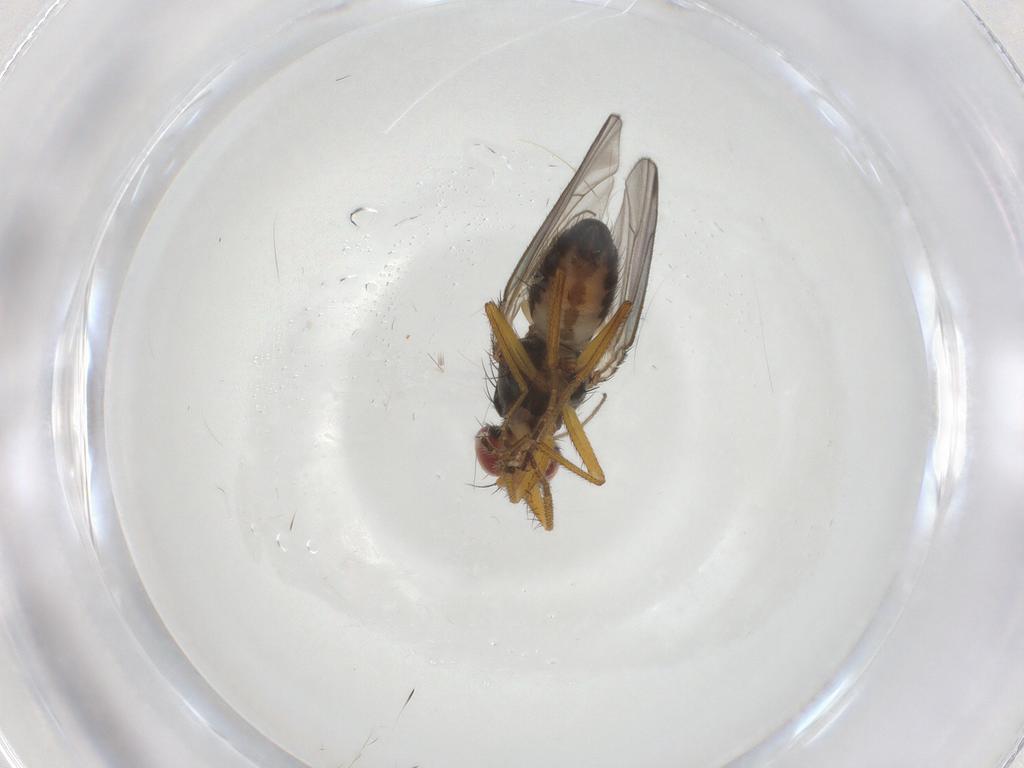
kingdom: Animalia
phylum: Arthropoda
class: Insecta
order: Diptera
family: Drosophilidae
